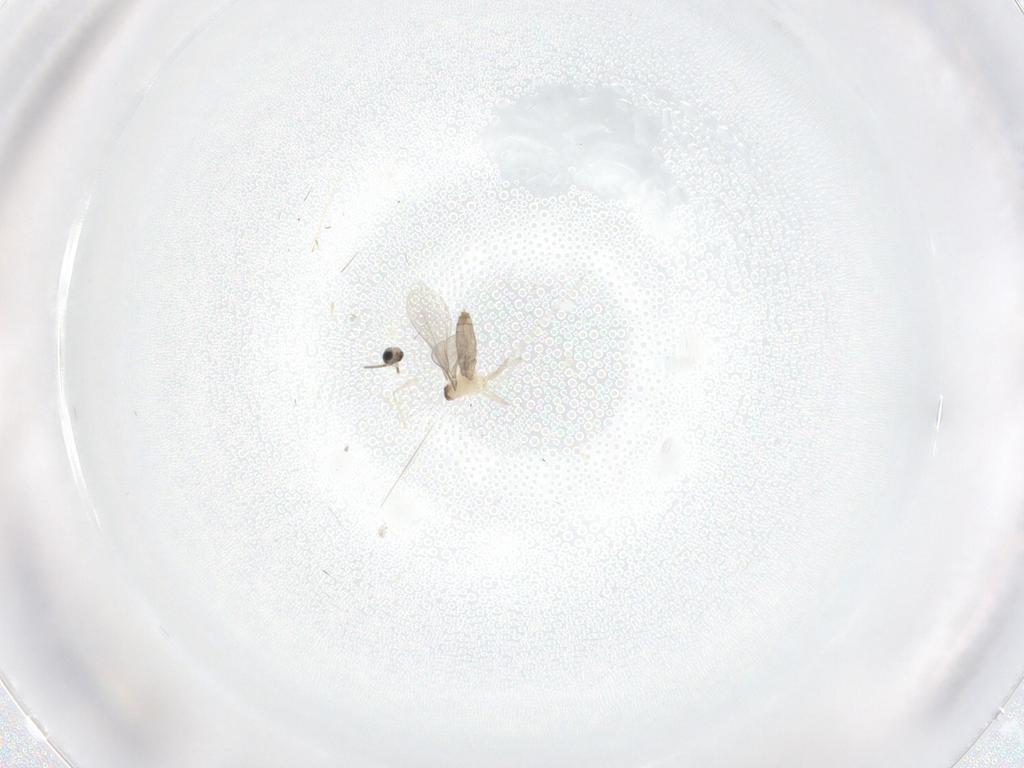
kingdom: Animalia
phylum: Arthropoda
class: Insecta
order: Diptera
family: Cecidomyiidae
